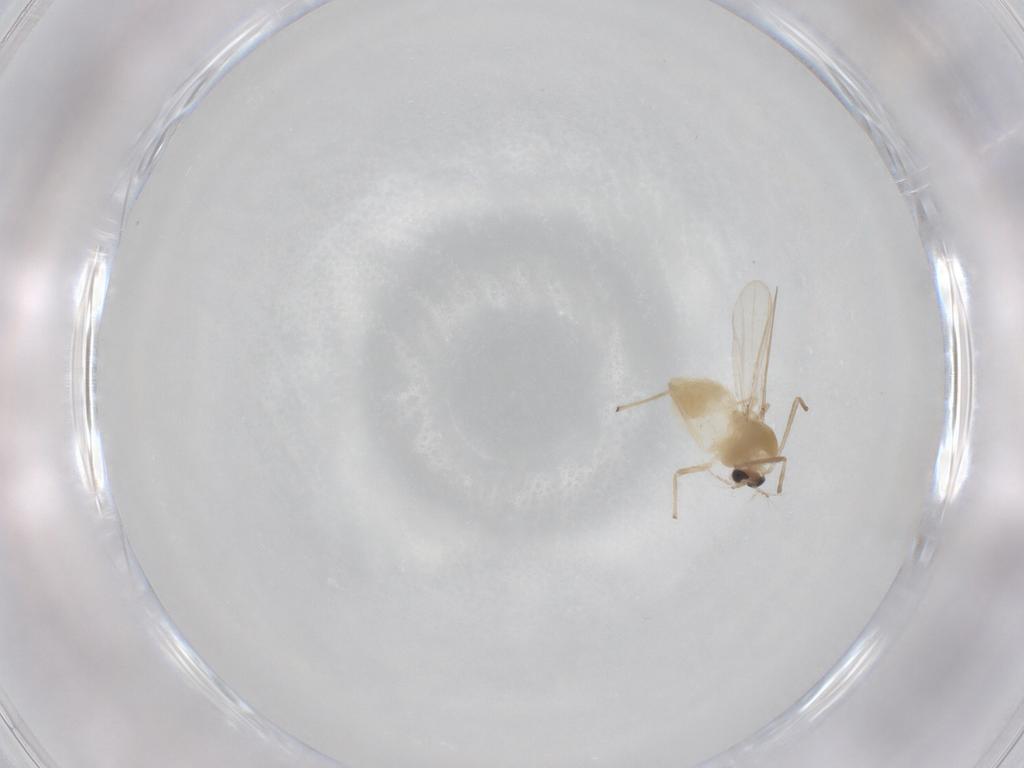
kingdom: Animalia
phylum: Arthropoda
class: Insecta
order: Diptera
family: Chironomidae
